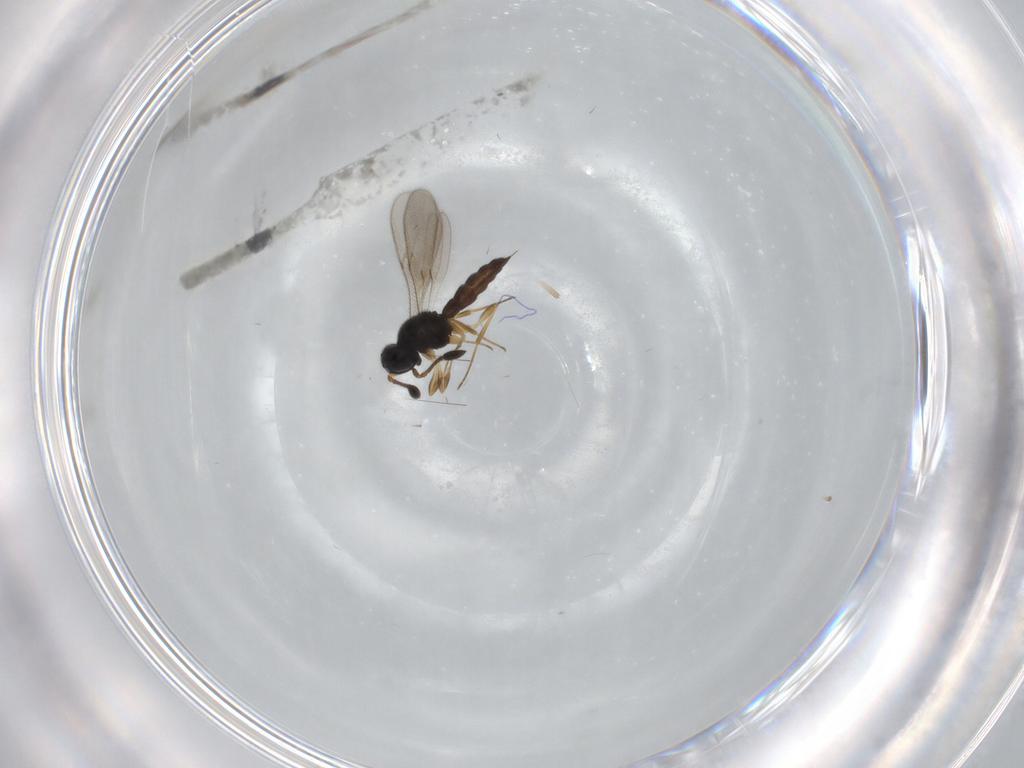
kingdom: Animalia
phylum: Arthropoda
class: Insecta
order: Hymenoptera
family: Scelionidae
